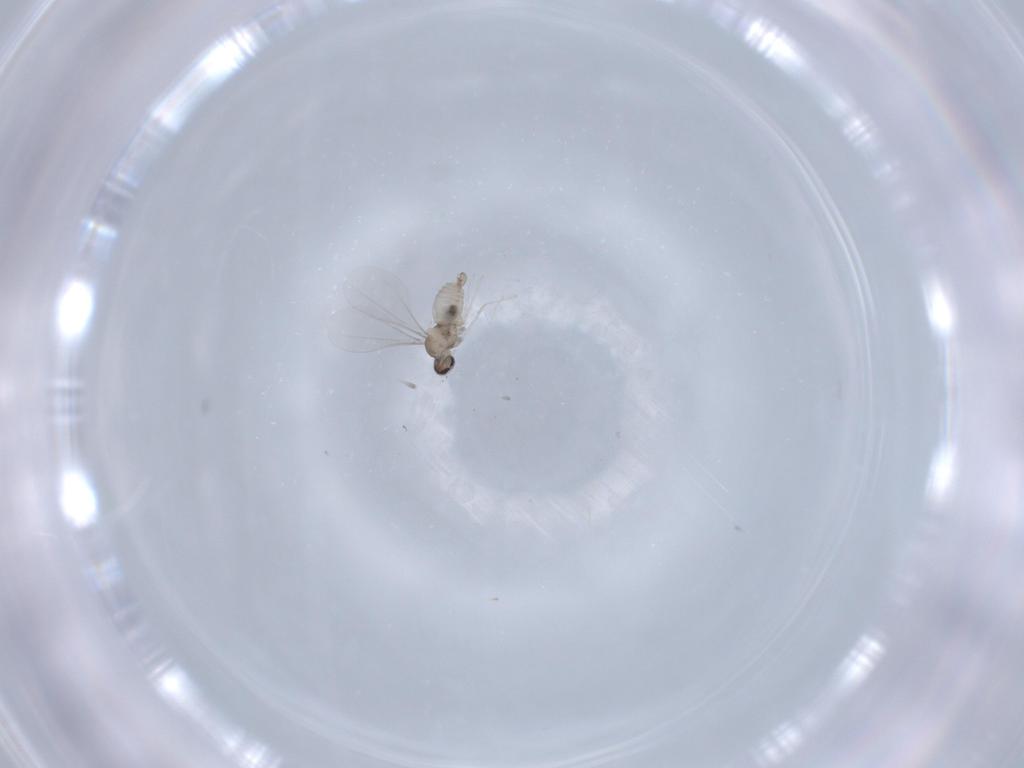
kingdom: Animalia
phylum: Arthropoda
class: Insecta
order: Diptera
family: Cecidomyiidae
